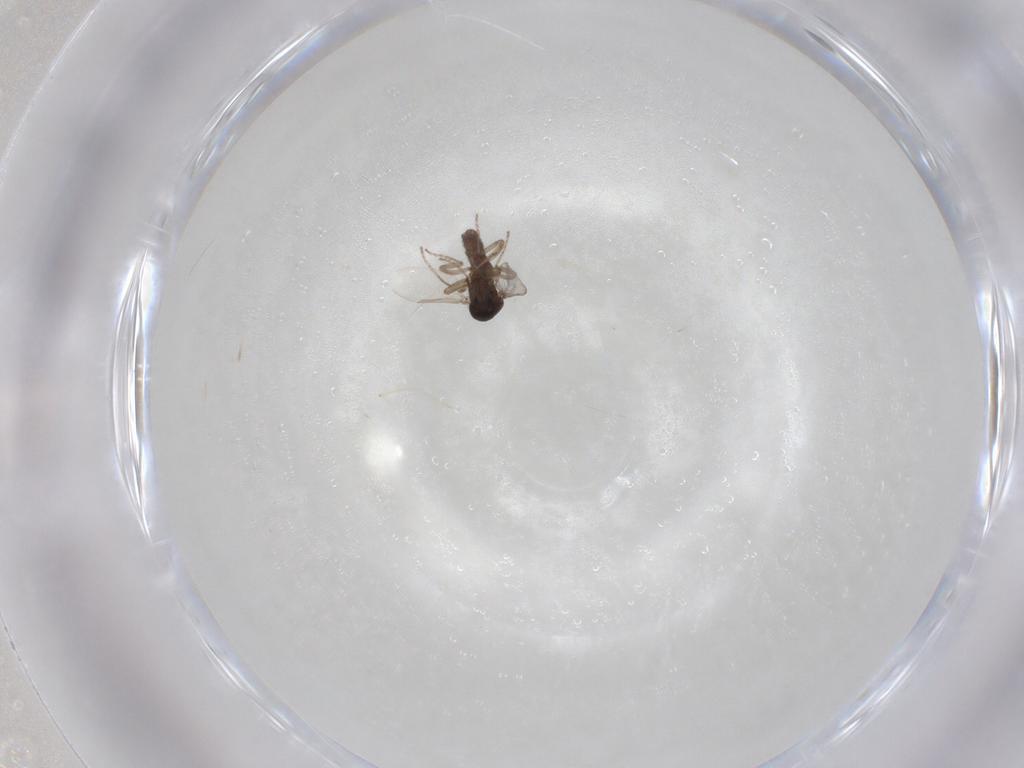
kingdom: Animalia
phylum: Arthropoda
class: Insecta
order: Diptera
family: Ceratopogonidae
